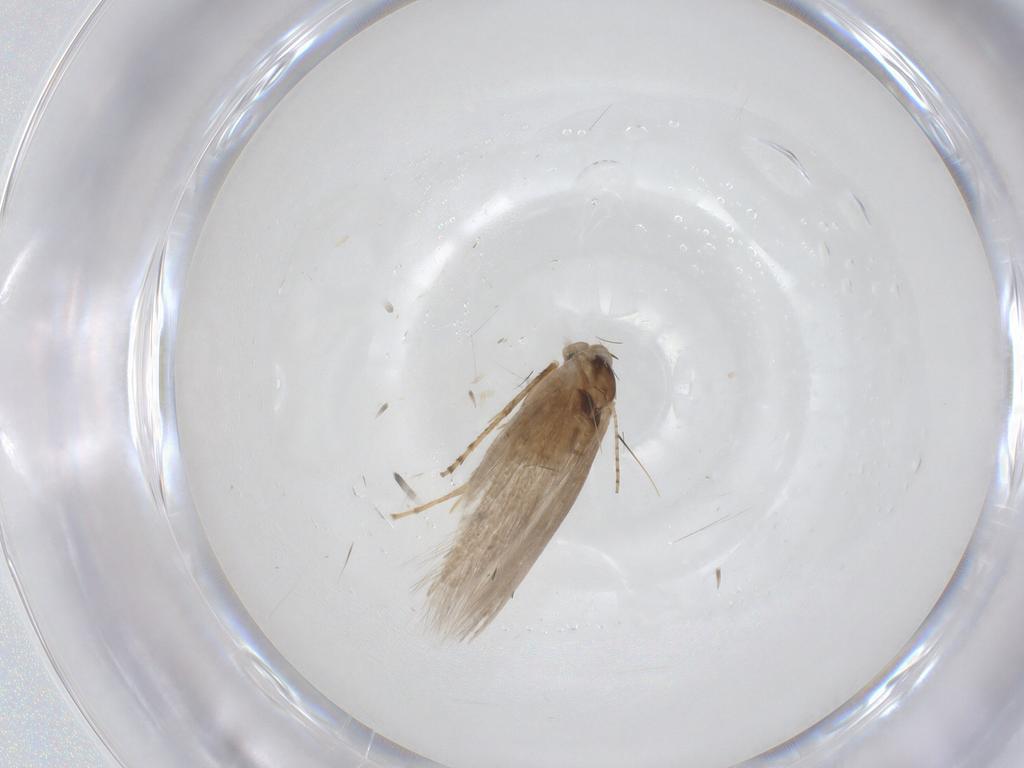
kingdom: Animalia
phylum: Arthropoda
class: Insecta
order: Lepidoptera
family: Bucculatricidae
